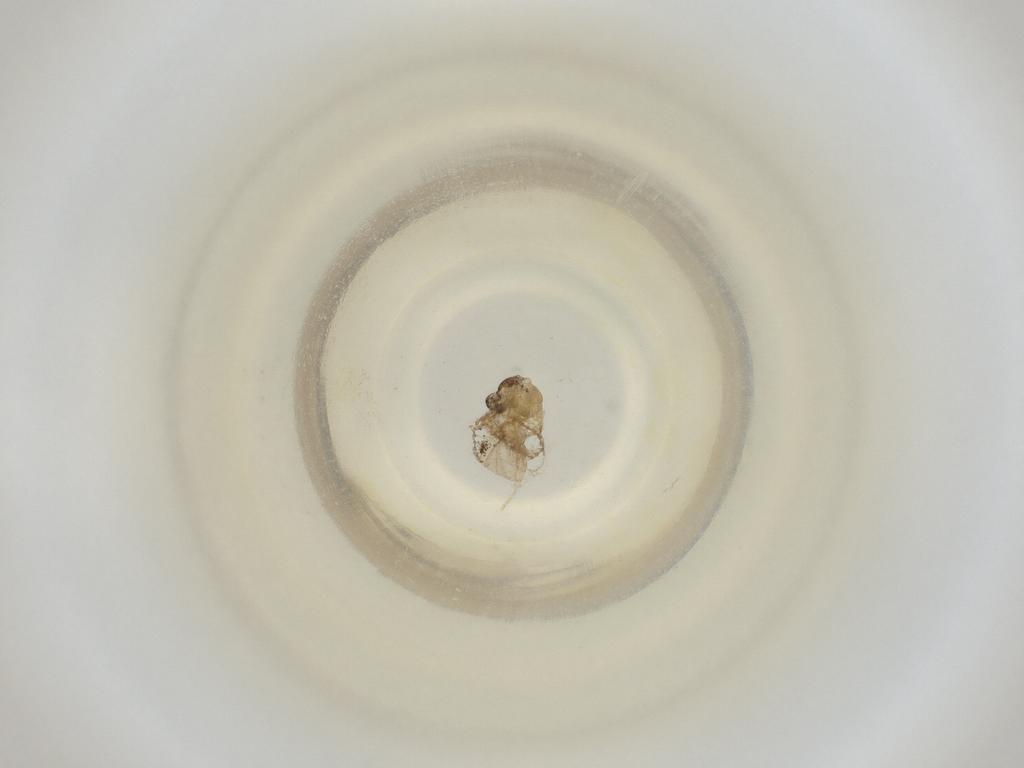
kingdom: Animalia
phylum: Arthropoda
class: Insecta
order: Diptera
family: Cecidomyiidae
